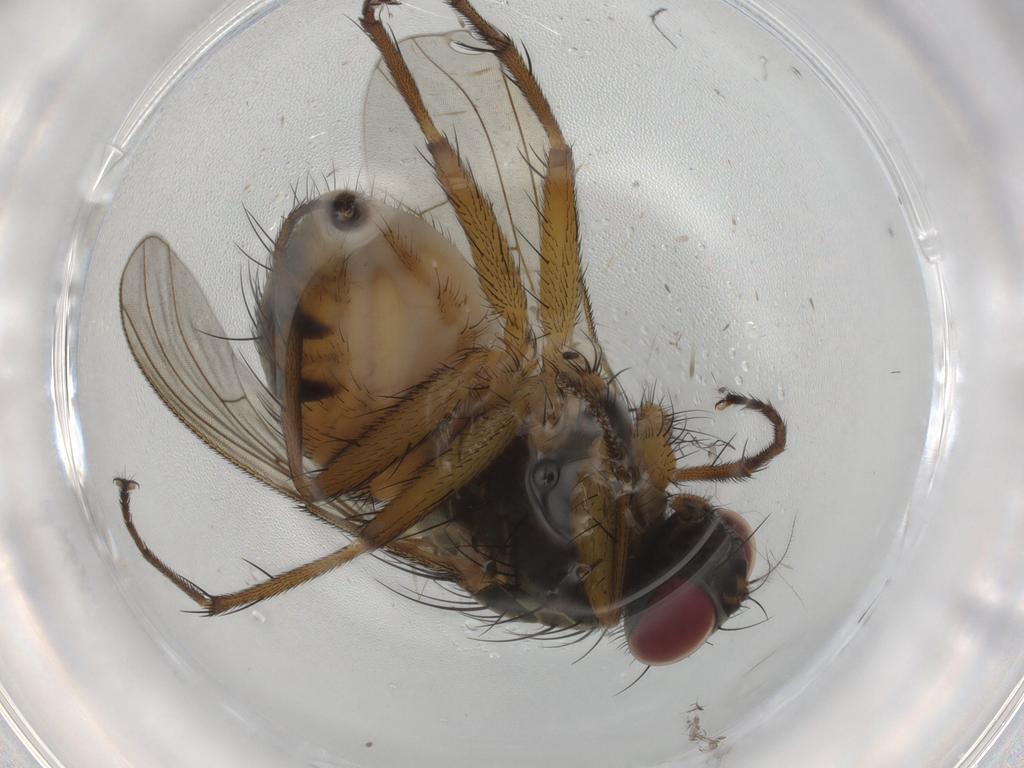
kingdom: Animalia
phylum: Arthropoda
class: Insecta
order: Diptera
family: Muscidae
